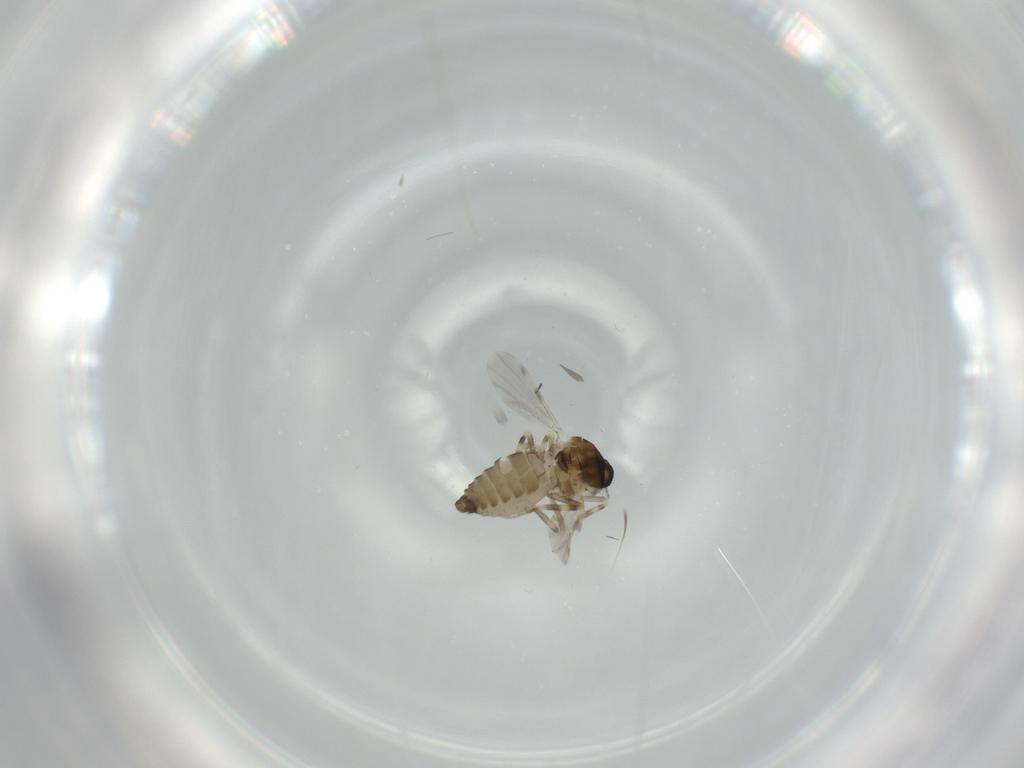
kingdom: Animalia
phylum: Arthropoda
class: Insecta
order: Diptera
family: Ceratopogonidae
